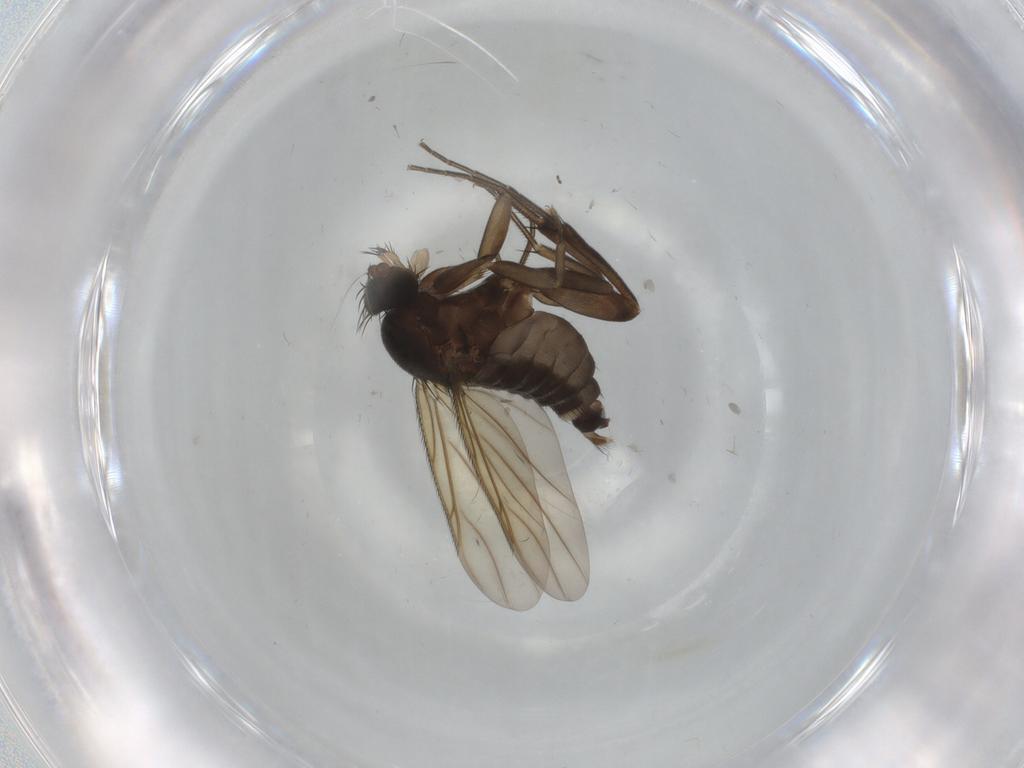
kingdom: Animalia
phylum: Arthropoda
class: Insecta
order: Diptera
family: Phoridae
